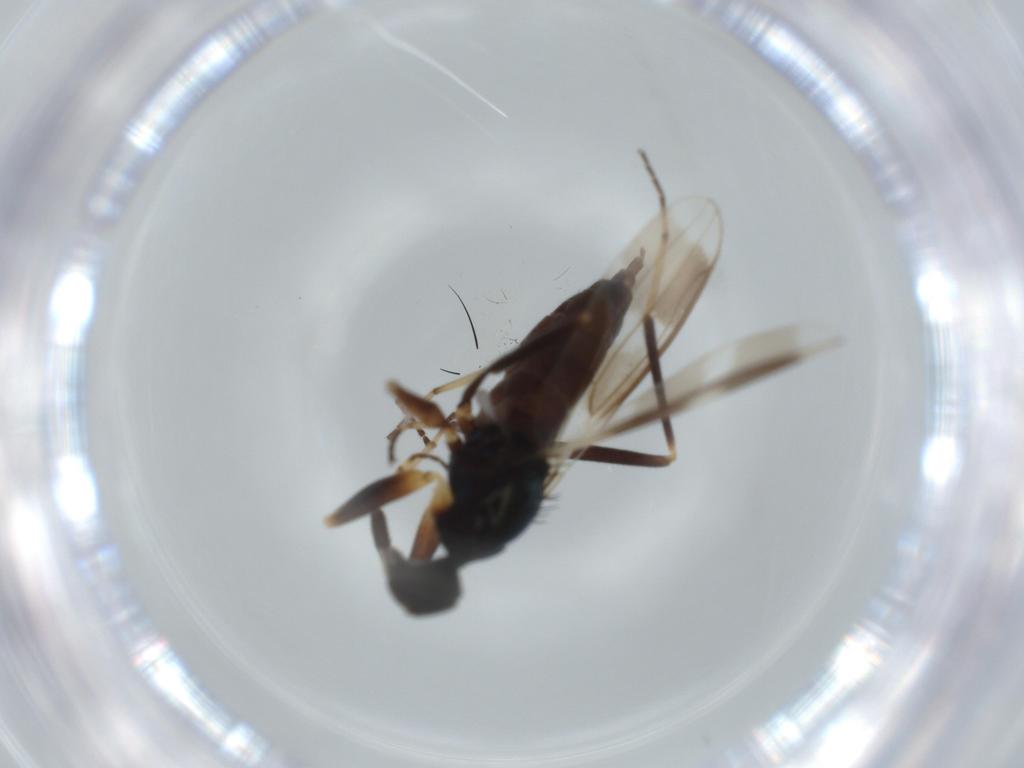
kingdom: Animalia
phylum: Arthropoda
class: Insecta
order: Diptera
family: Hybotidae
